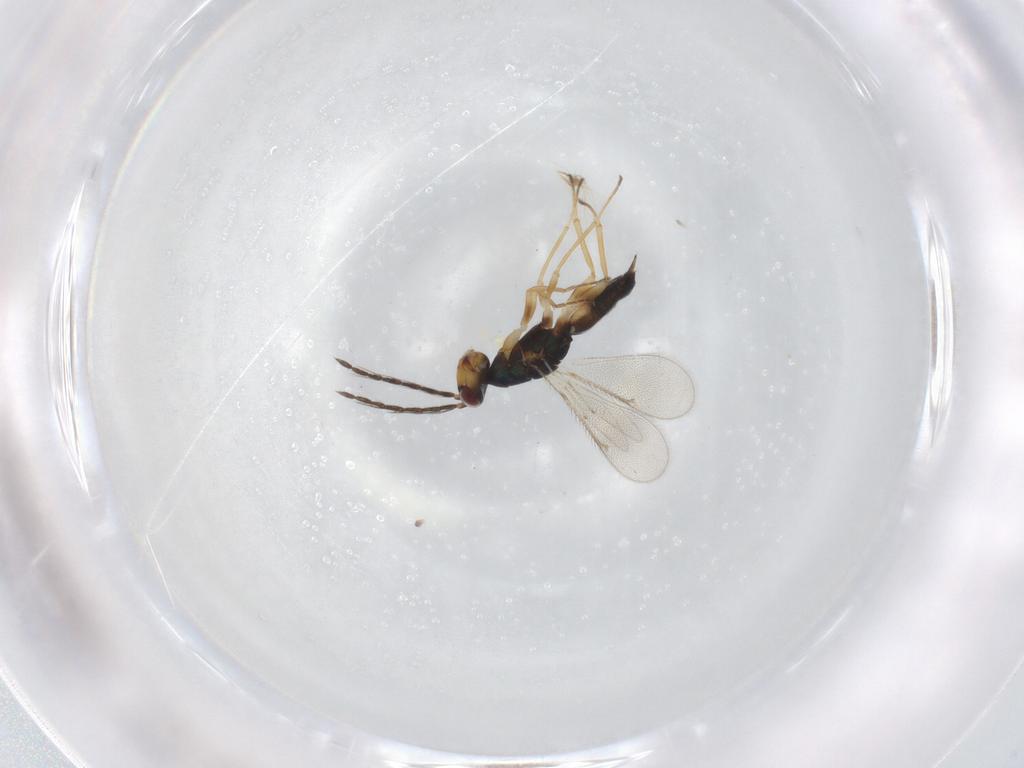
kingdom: Animalia
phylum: Arthropoda
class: Insecta
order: Hymenoptera
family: Eulophidae
